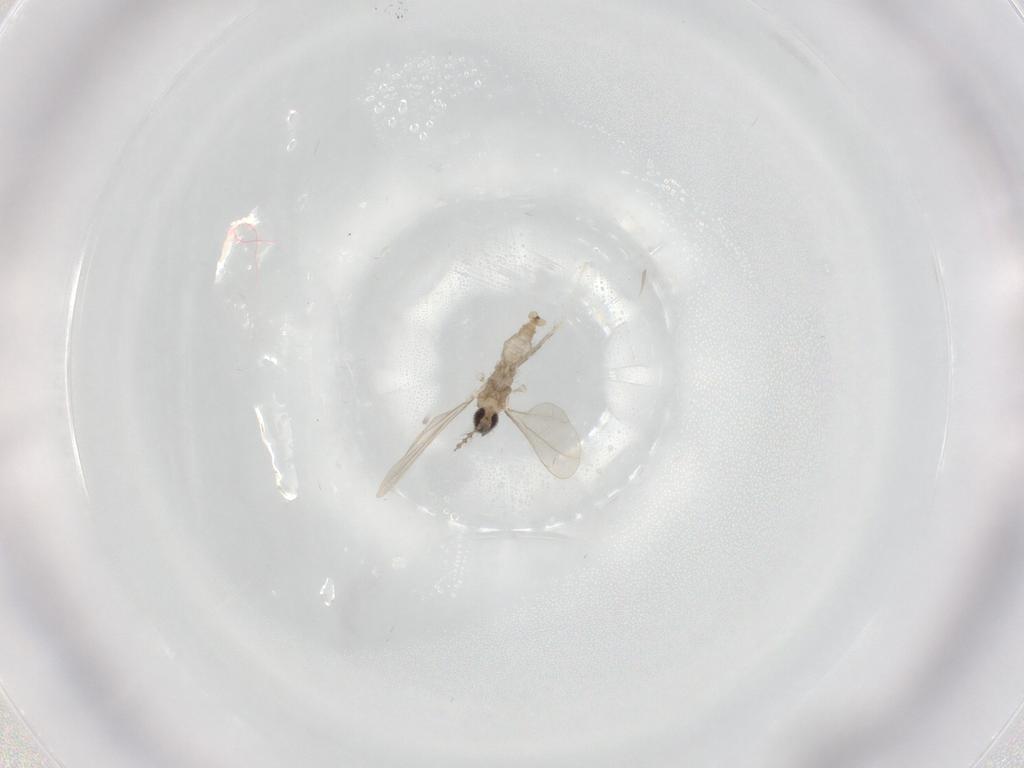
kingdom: Animalia
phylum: Arthropoda
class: Insecta
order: Diptera
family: Cecidomyiidae
